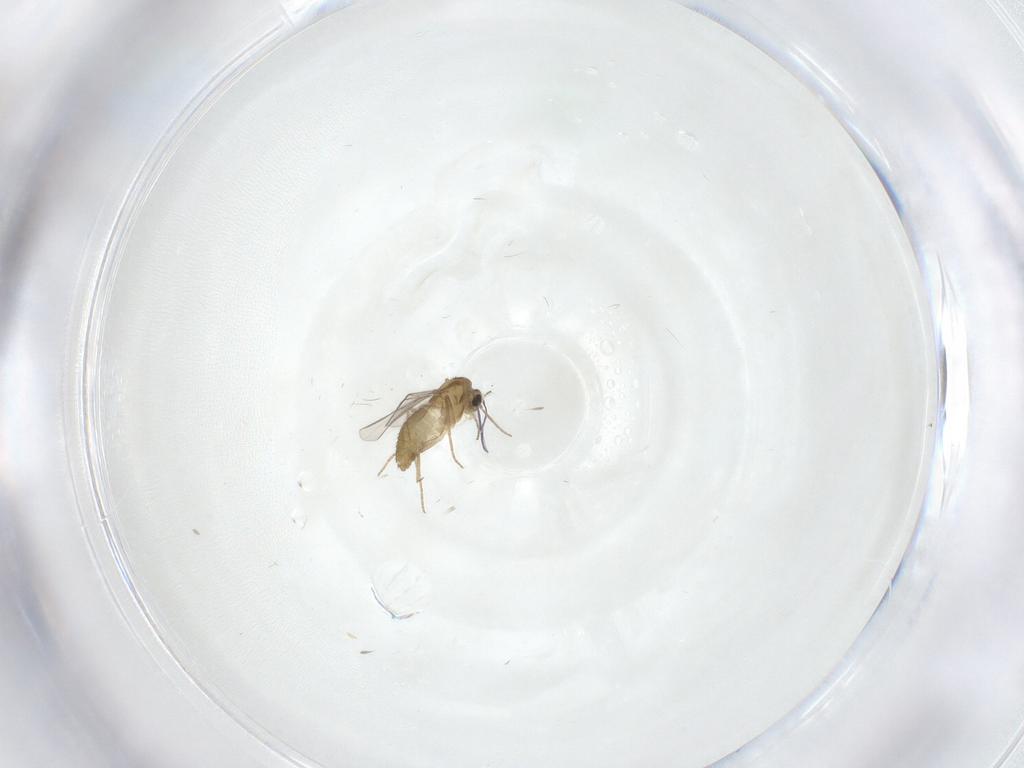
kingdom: Animalia
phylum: Arthropoda
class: Insecta
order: Diptera
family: Chironomidae
